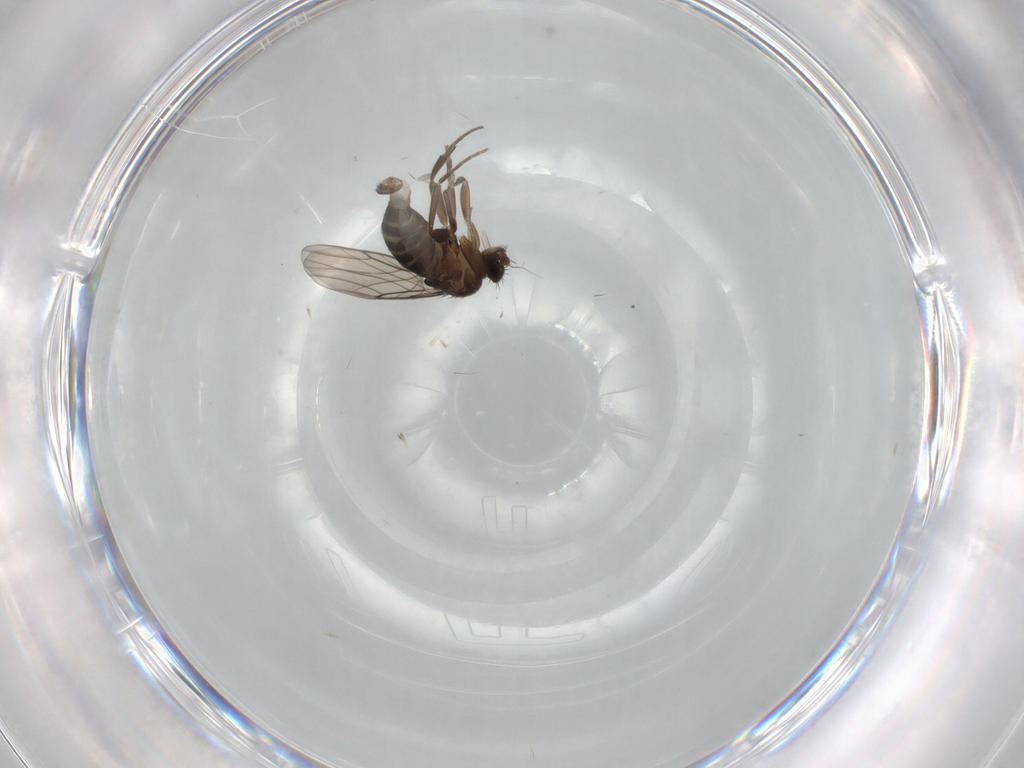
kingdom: Animalia
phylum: Arthropoda
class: Insecta
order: Diptera
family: Phoridae
